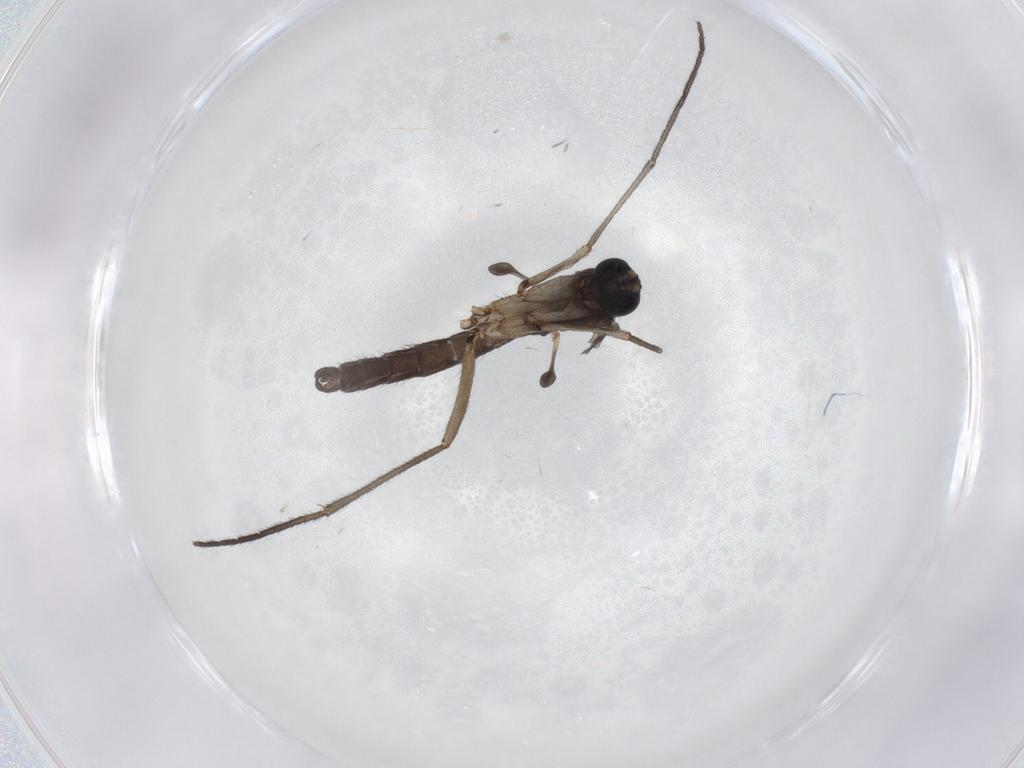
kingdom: Animalia
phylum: Arthropoda
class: Insecta
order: Diptera
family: Sciaridae
